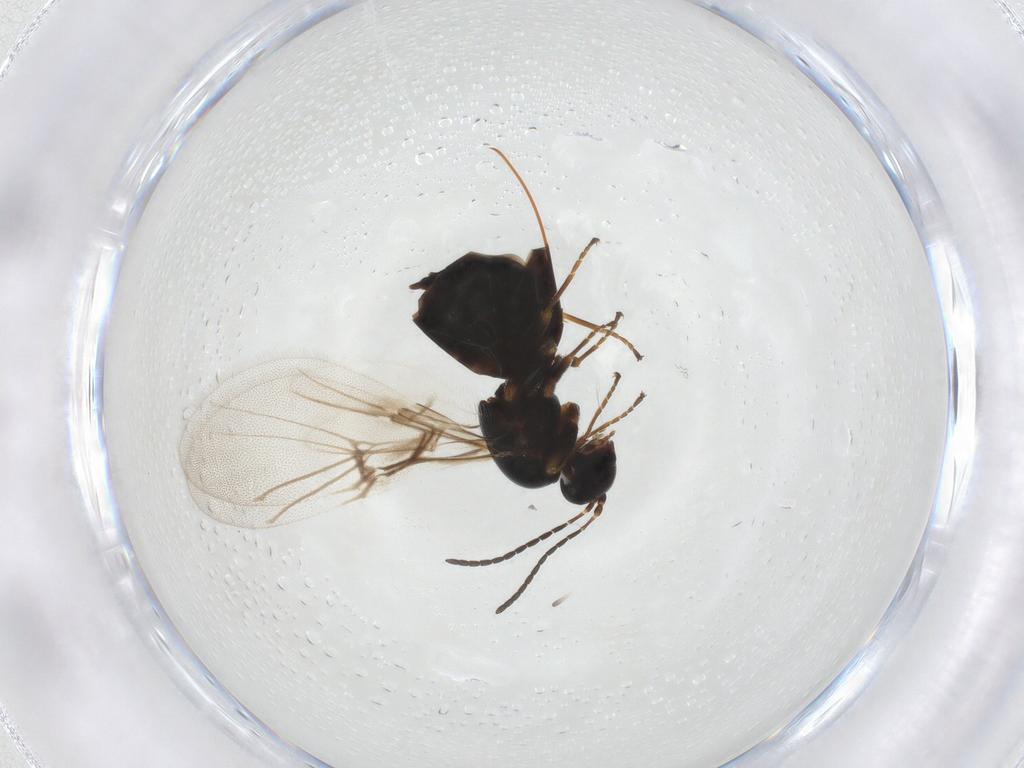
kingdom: Animalia
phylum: Arthropoda
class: Insecta
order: Hymenoptera
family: Cynipidae
